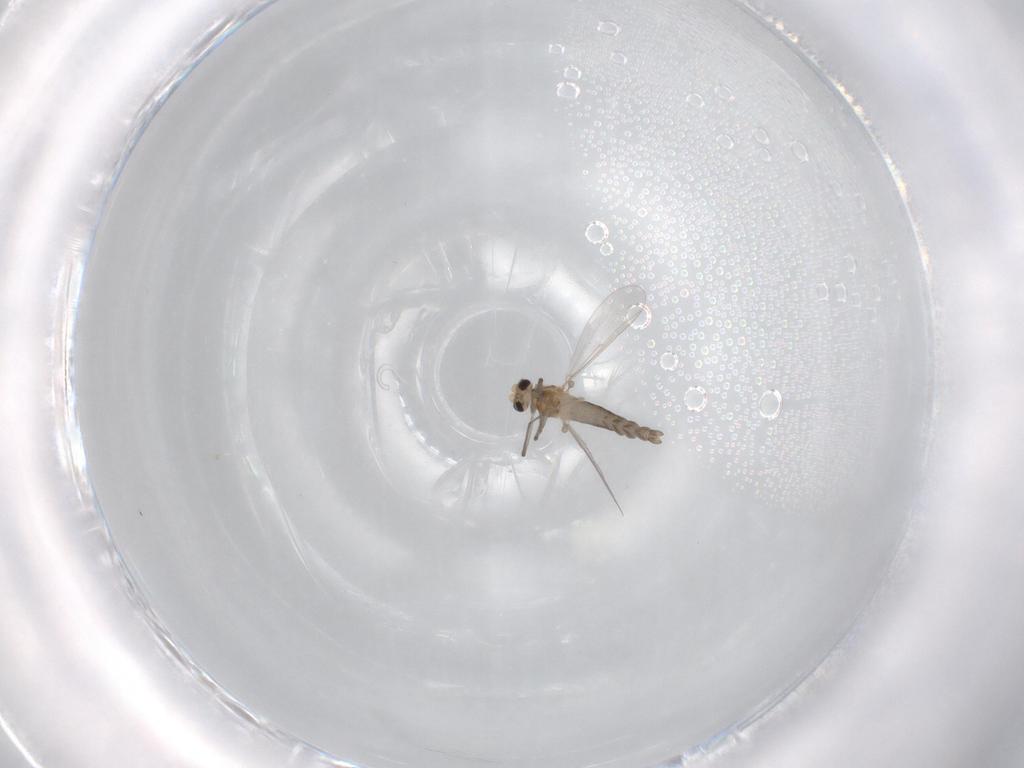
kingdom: Animalia
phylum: Arthropoda
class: Insecta
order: Diptera
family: Chironomidae
